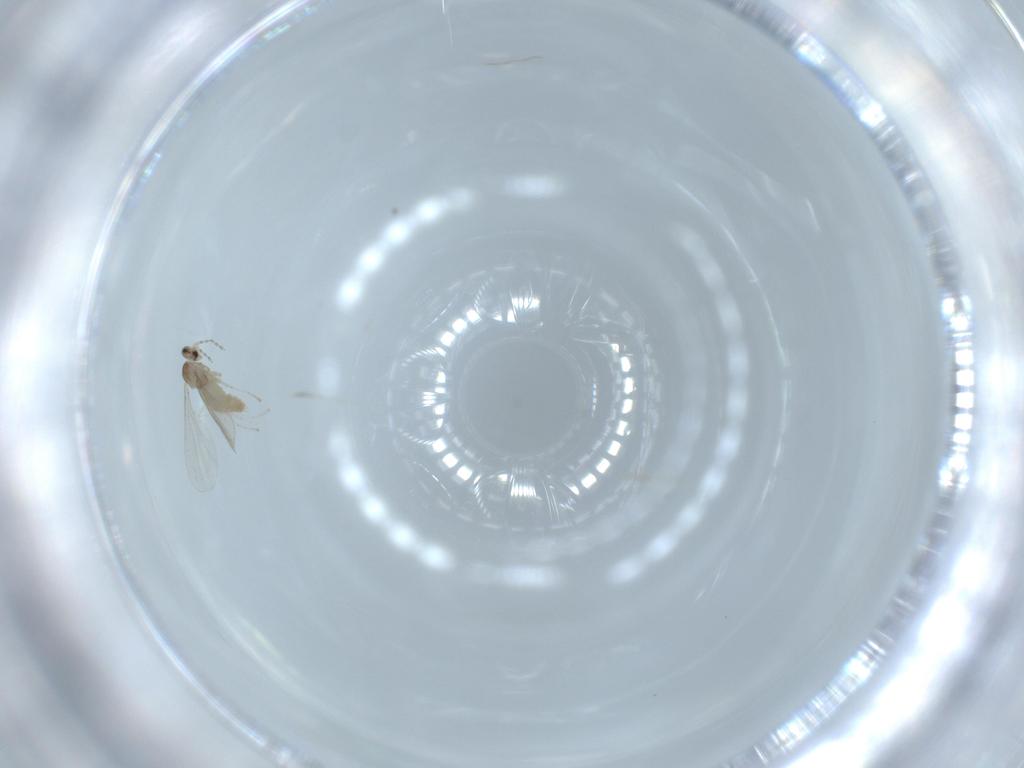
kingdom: Animalia
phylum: Arthropoda
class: Insecta
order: Diptera
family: Cecidomyiidae
